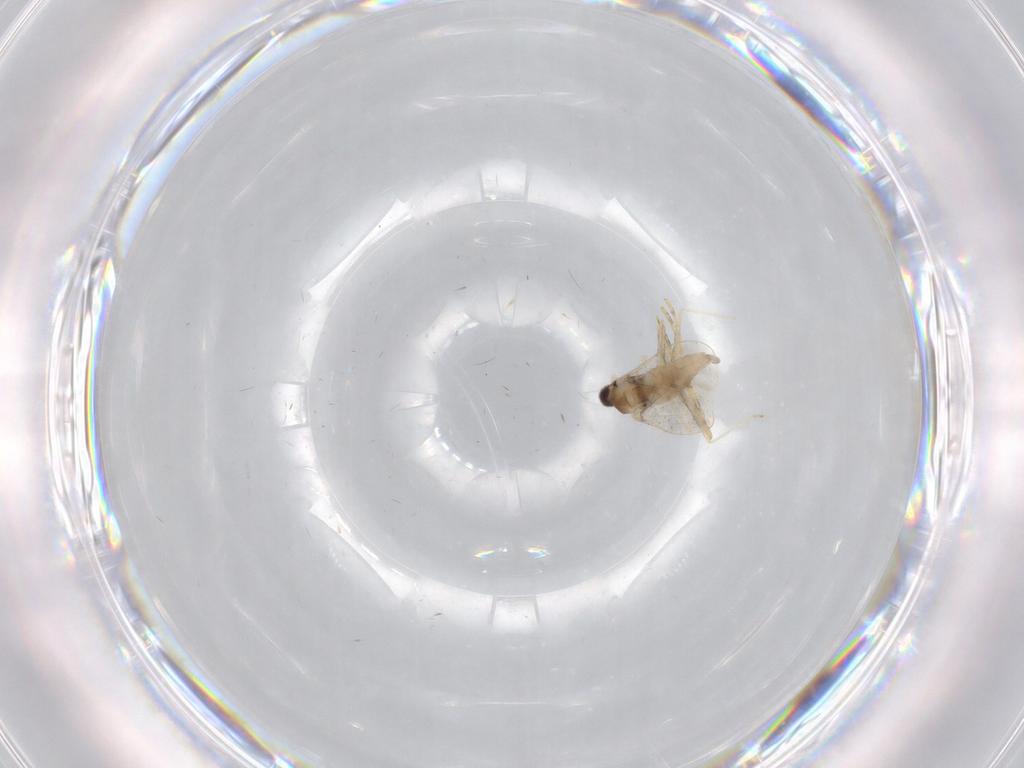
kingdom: Animalia
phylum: Arthropoda
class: Insecta
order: Diptera
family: Cecidomyiidae
